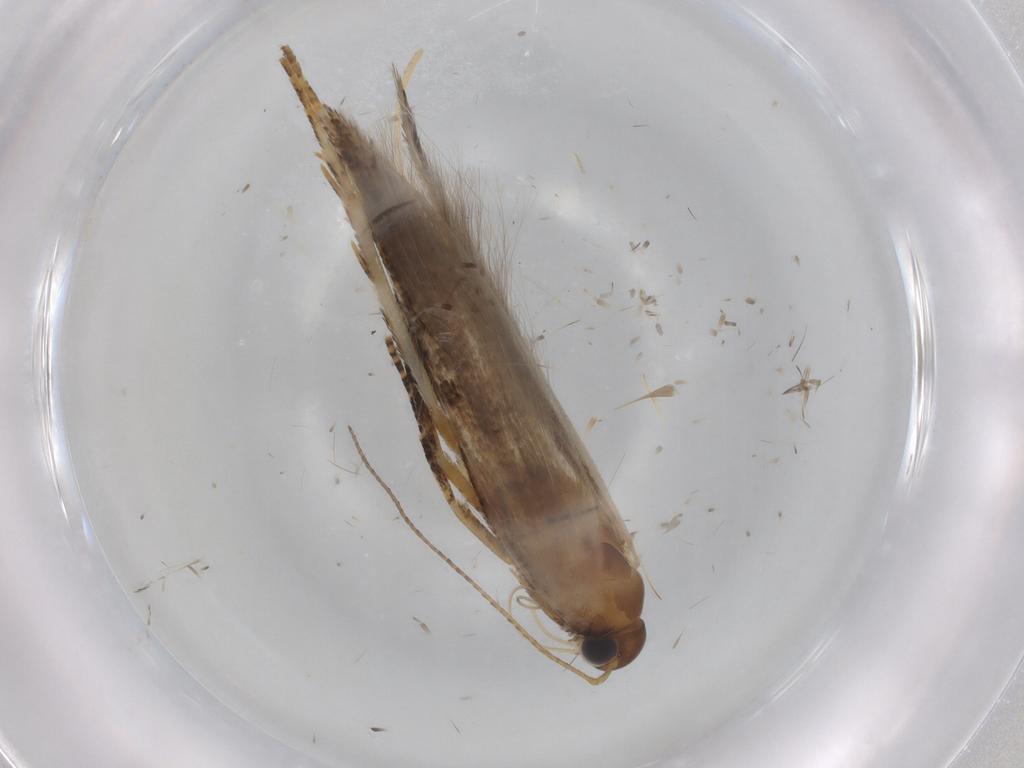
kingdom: Animalia
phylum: Arthropoda
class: Insecta
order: Lepidoptera
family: Gelechiidae
